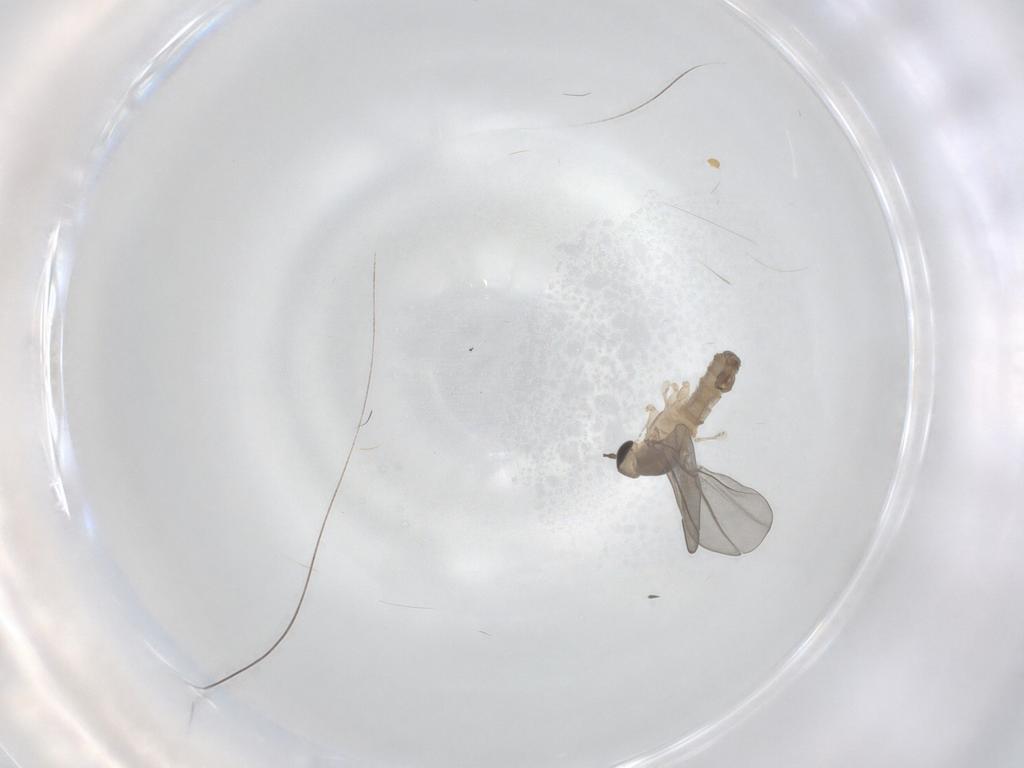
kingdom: Animalia
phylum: Arthropoda
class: Insecta
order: Diptera
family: Cecidomyiidae
